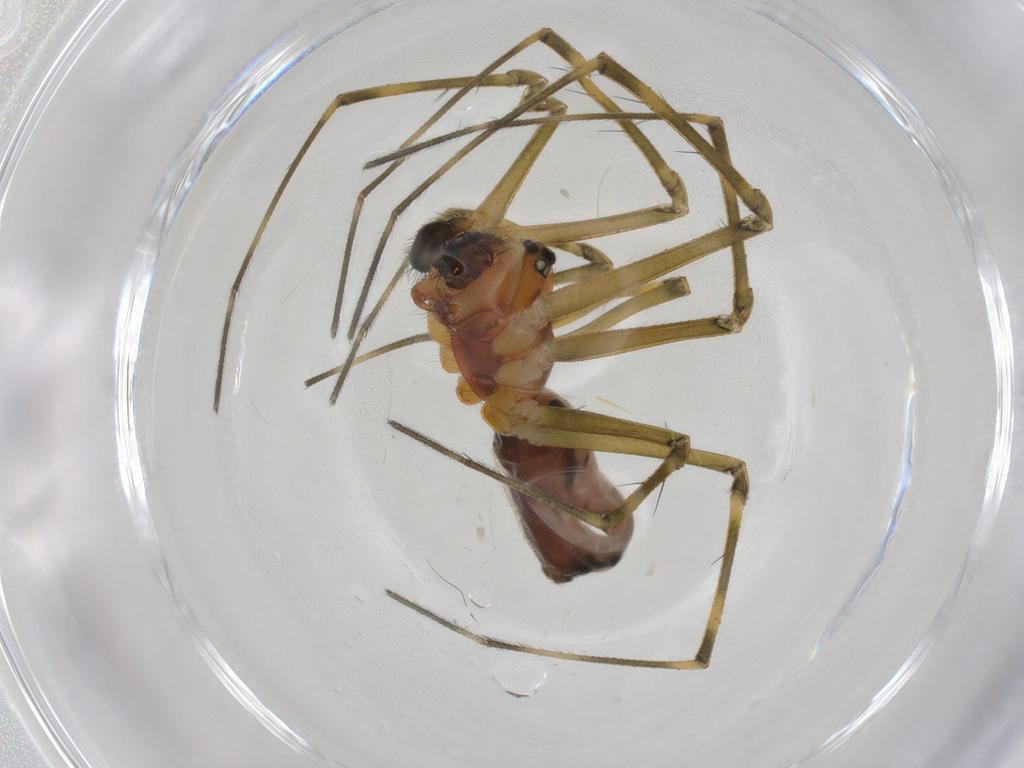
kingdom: Animalia
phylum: Arthropoda
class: Arachnida
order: Araneae
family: Linyphiidae
